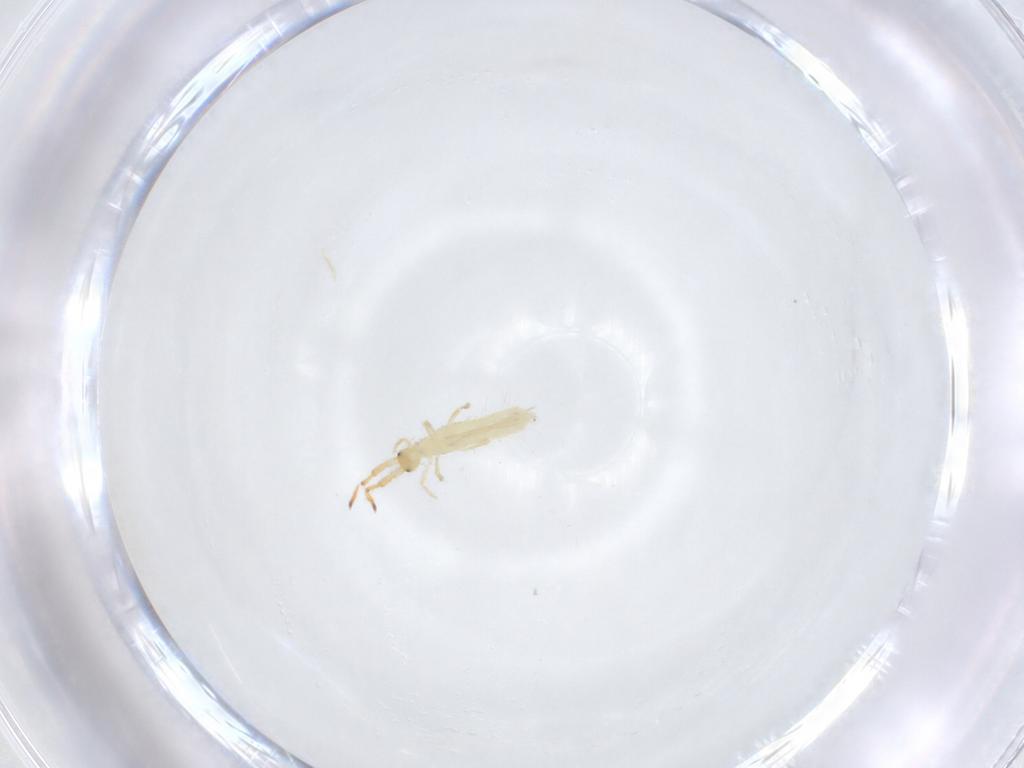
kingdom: Animalia
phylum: Arthropoda
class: Collembola
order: Entomobryomorpha
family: Entomobryidae
